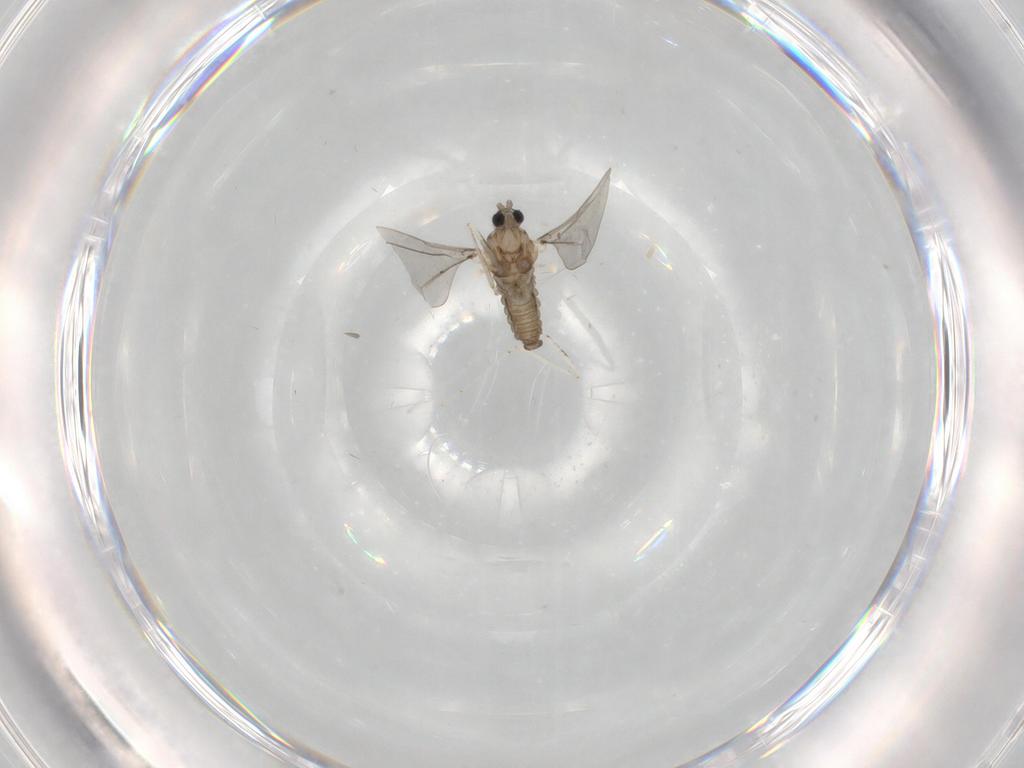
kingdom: Animalia
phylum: Arthropoda
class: Insecta
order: Diptera
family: Cecidomyiidae
